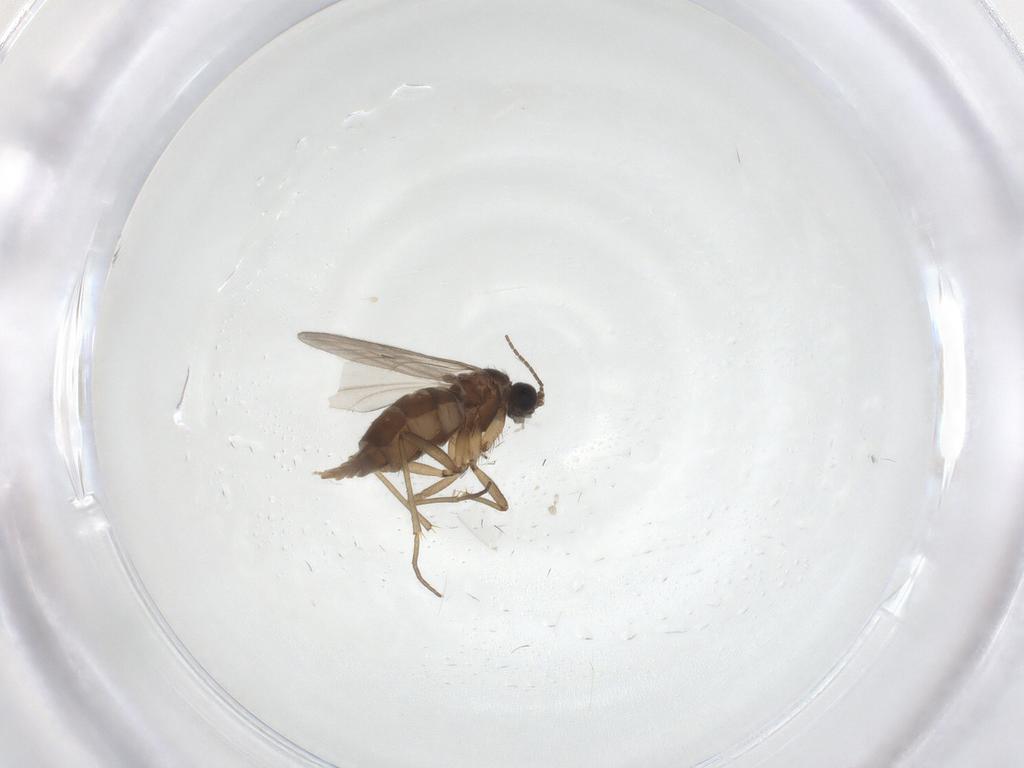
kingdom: Animalia
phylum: Arthropoda
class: Insecta
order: Diptera
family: Sciaridae
